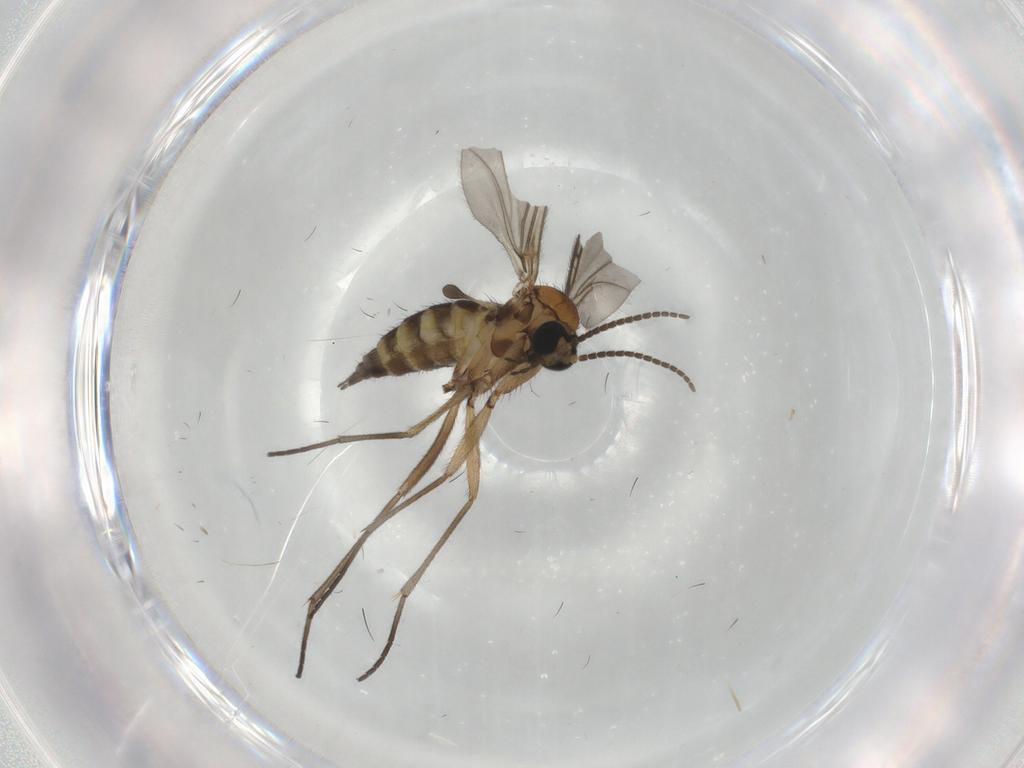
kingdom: Animalia
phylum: Arthropoda
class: Insecta
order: Diptera
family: Sciaridae
